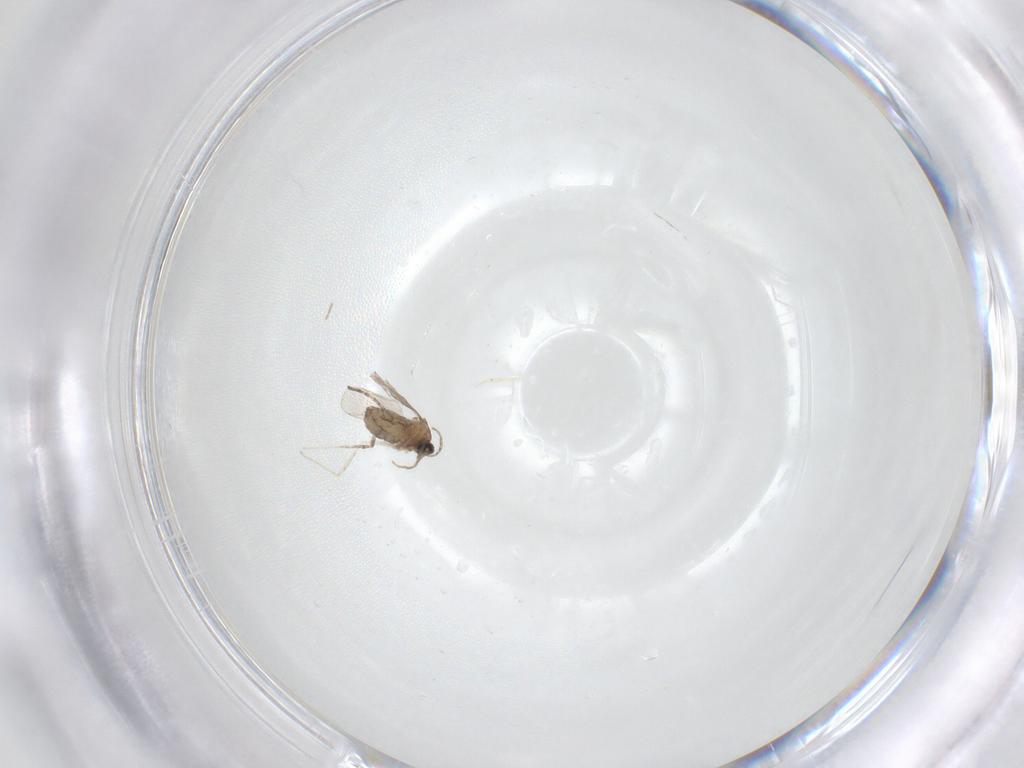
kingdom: Animalia
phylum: Arthropoda
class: Insecta
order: Diptera
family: Cecidomyiidae
